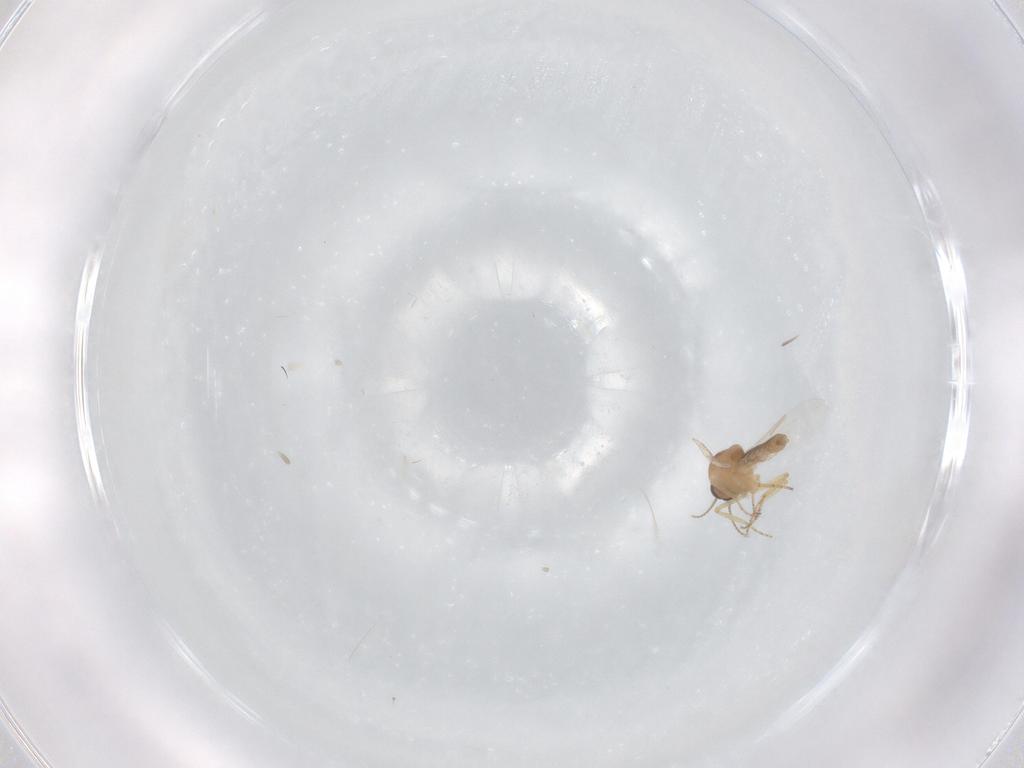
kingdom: Animalia
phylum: Arthropoda
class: Insecta
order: Diptera
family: Ceratopogonidae
